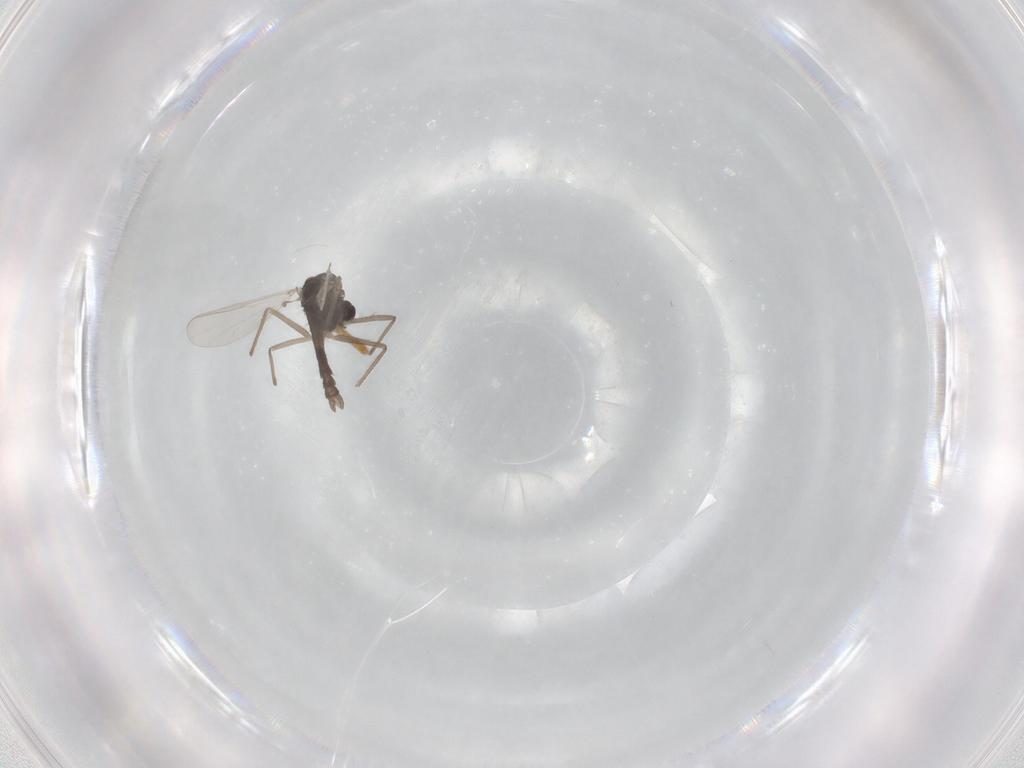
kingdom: Animalia
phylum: Arthropoda
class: Insecta
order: Diptera
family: Chironomidae
